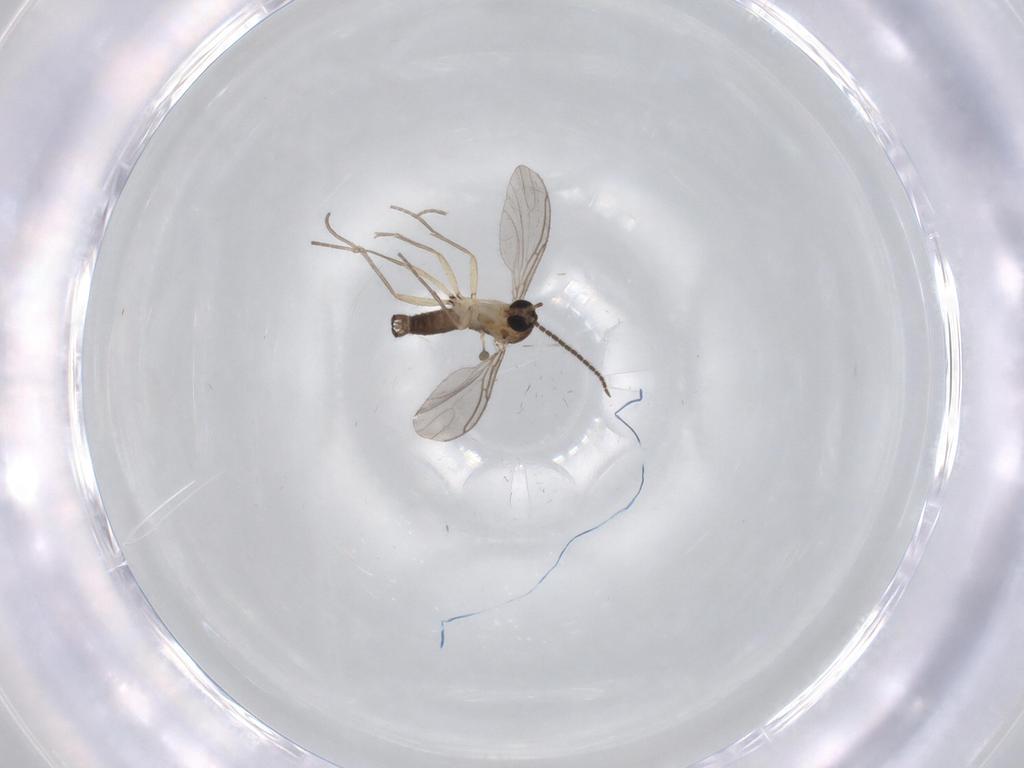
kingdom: Animalia
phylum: Arthropoda
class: Insecta
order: Diptera
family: Sciaridae
